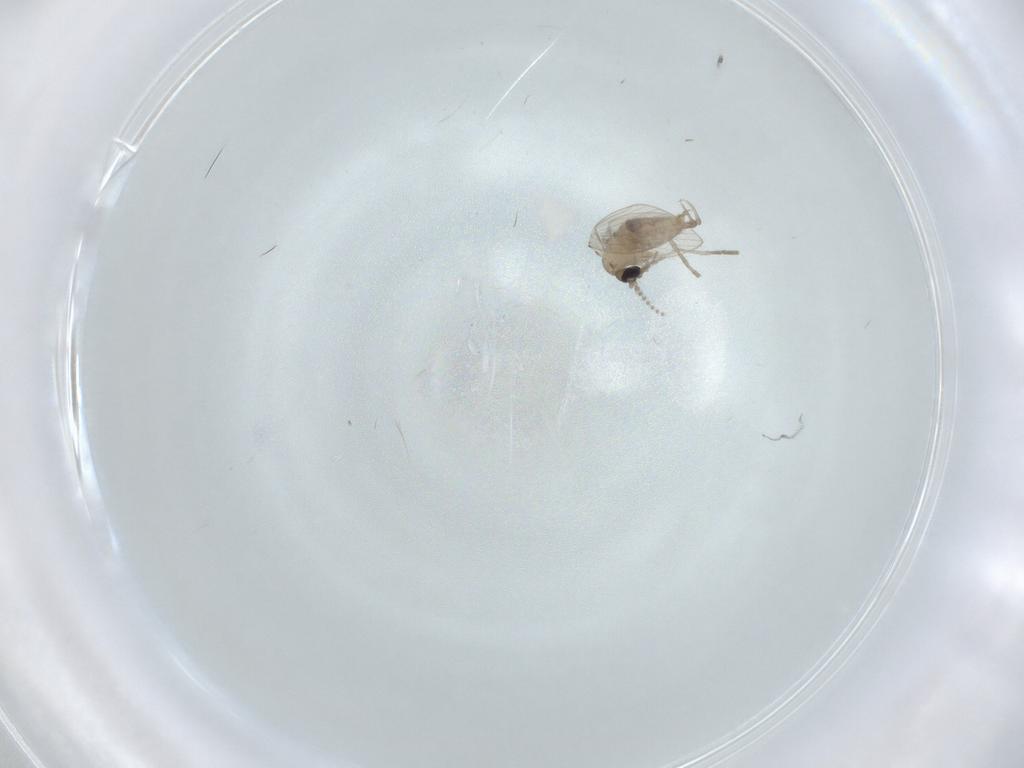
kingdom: Animalia
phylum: Arthropoda
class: Insecta
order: Diptera
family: Psychodidae
